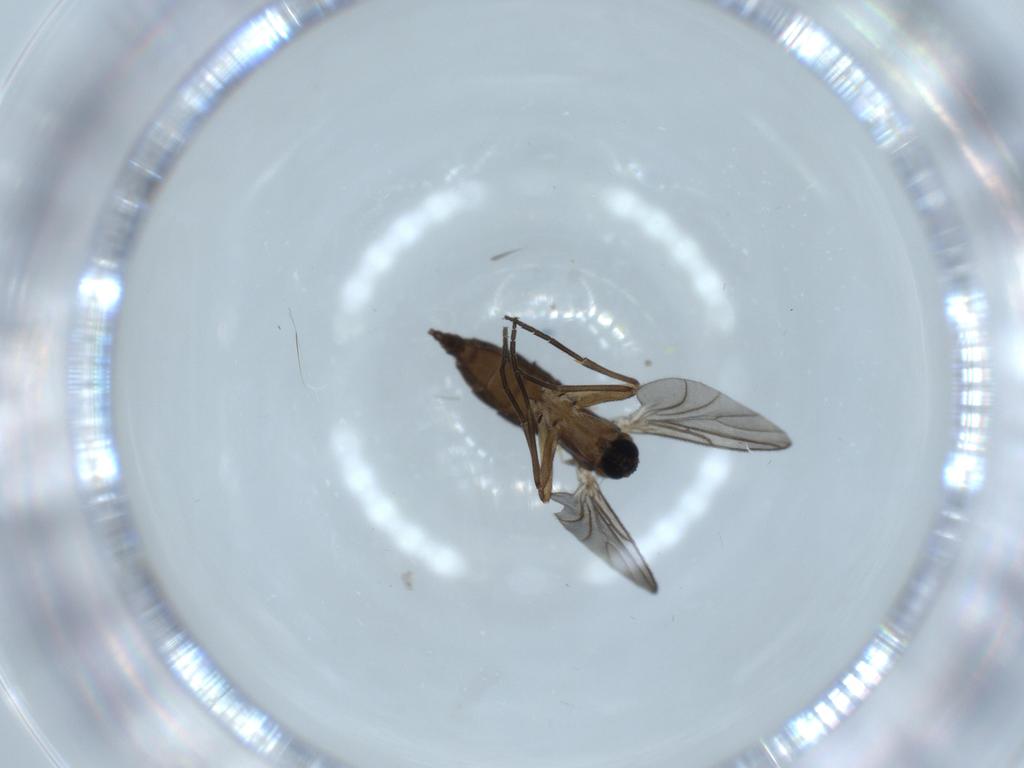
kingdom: Animalia
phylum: Arthropoda
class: Insecta
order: Diptera
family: Sciaridae
